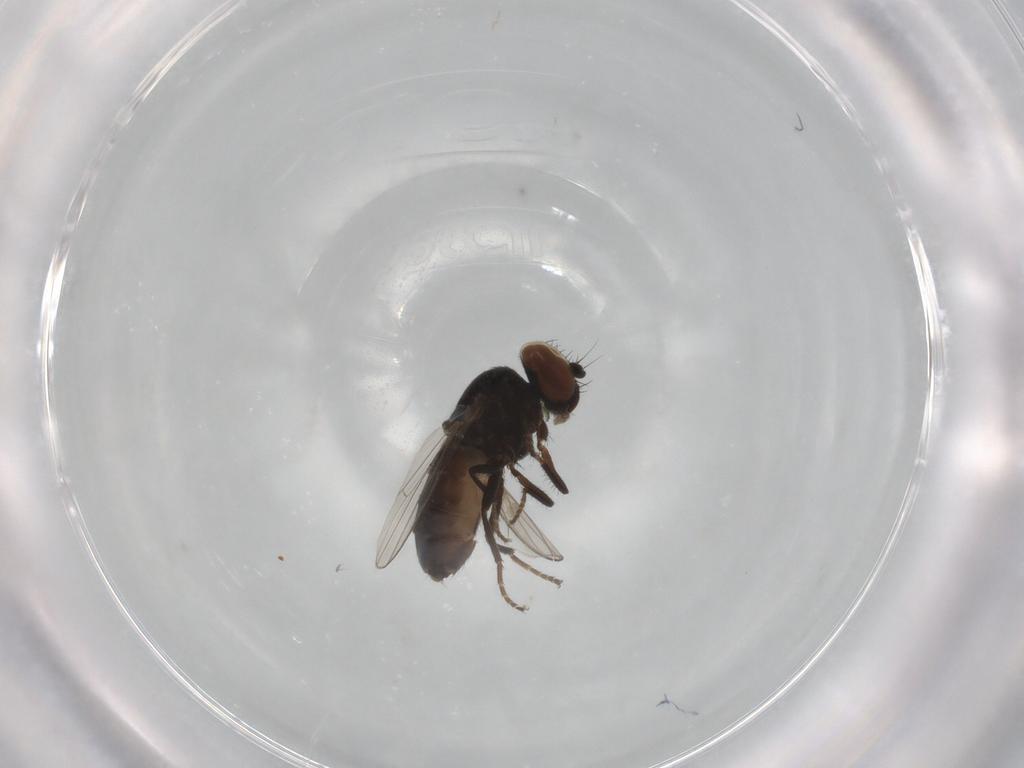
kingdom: Animalia
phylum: Arthropoda
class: Insecta
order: Diptera
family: Milichiidae
